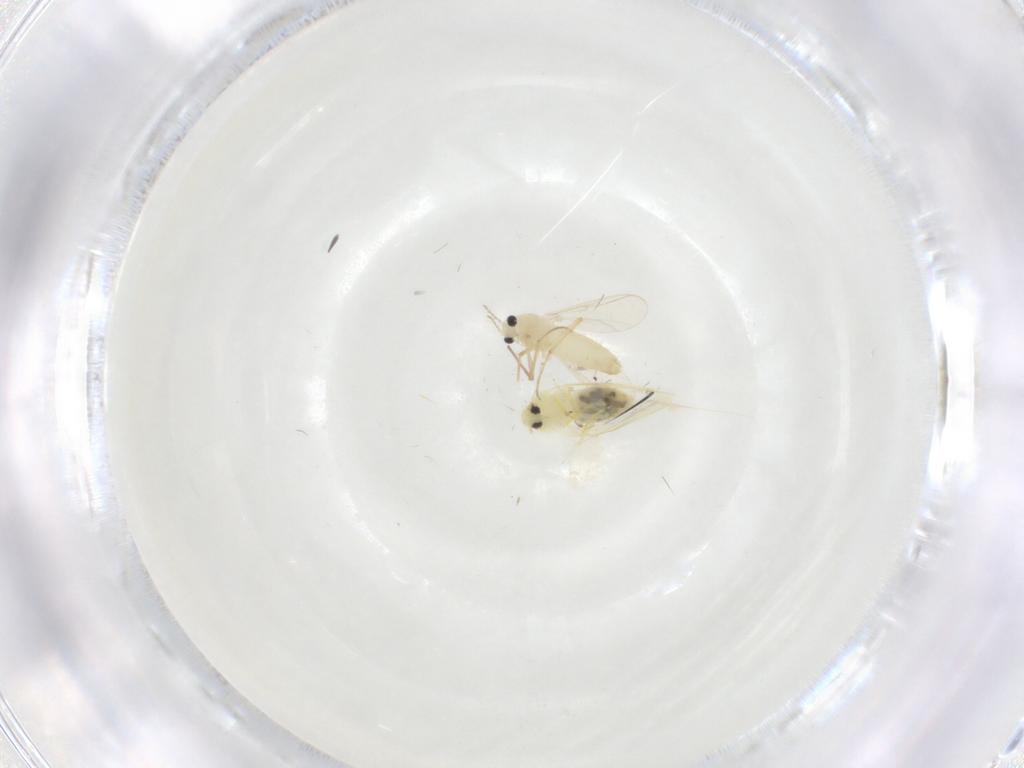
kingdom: Animalia
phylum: Arthropoda
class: Insecta
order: Diptera
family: Chironomidae
